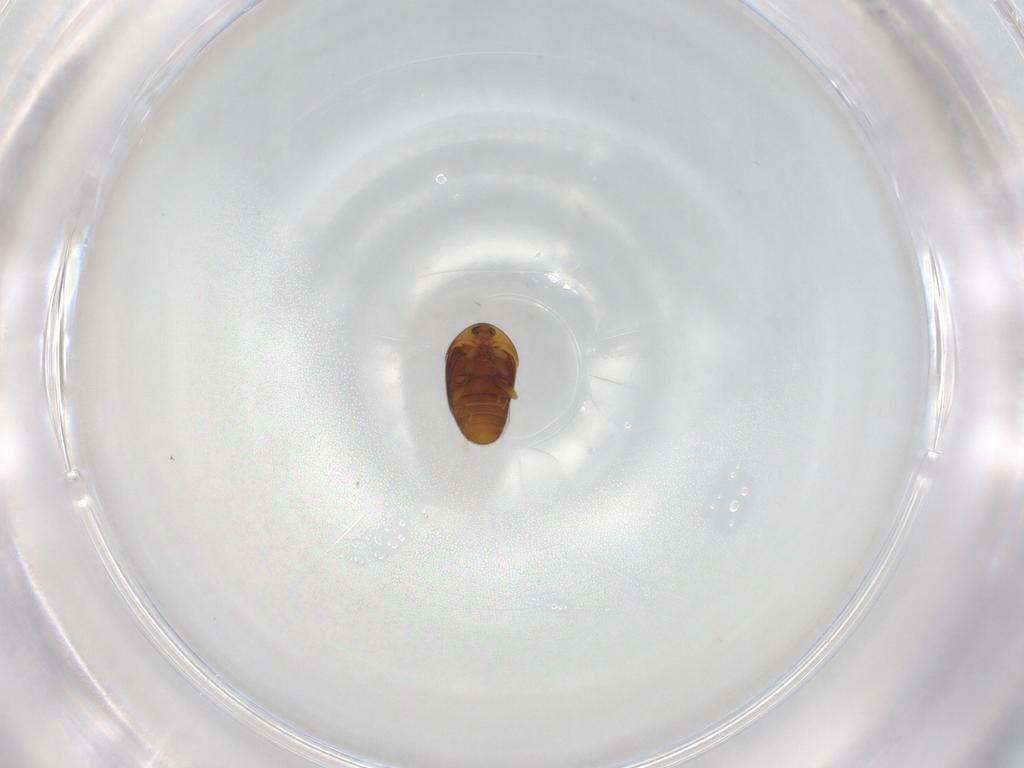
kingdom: Animalia
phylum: Arthropoda
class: Insecta
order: Coleoptera
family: Corylophidae
